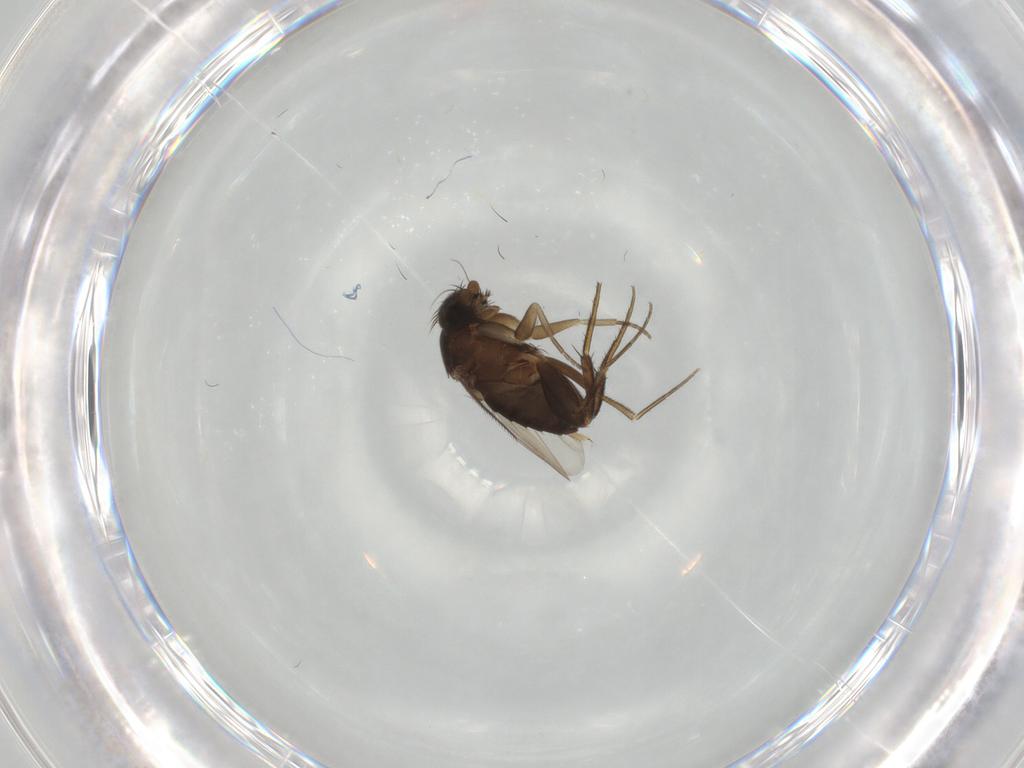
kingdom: Animalia
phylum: Arthropoda
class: Insecta
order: Diptera
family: Phoridae
